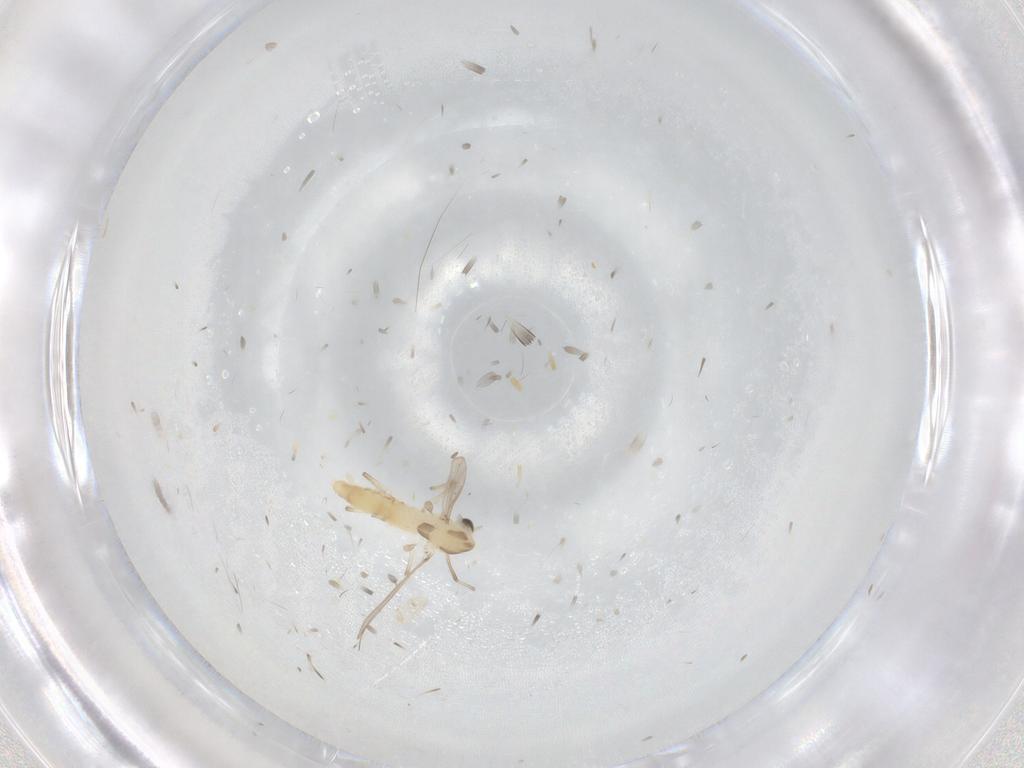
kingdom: Animalia
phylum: Arthropoda
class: Insecta
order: Diptera
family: Chironomidae
